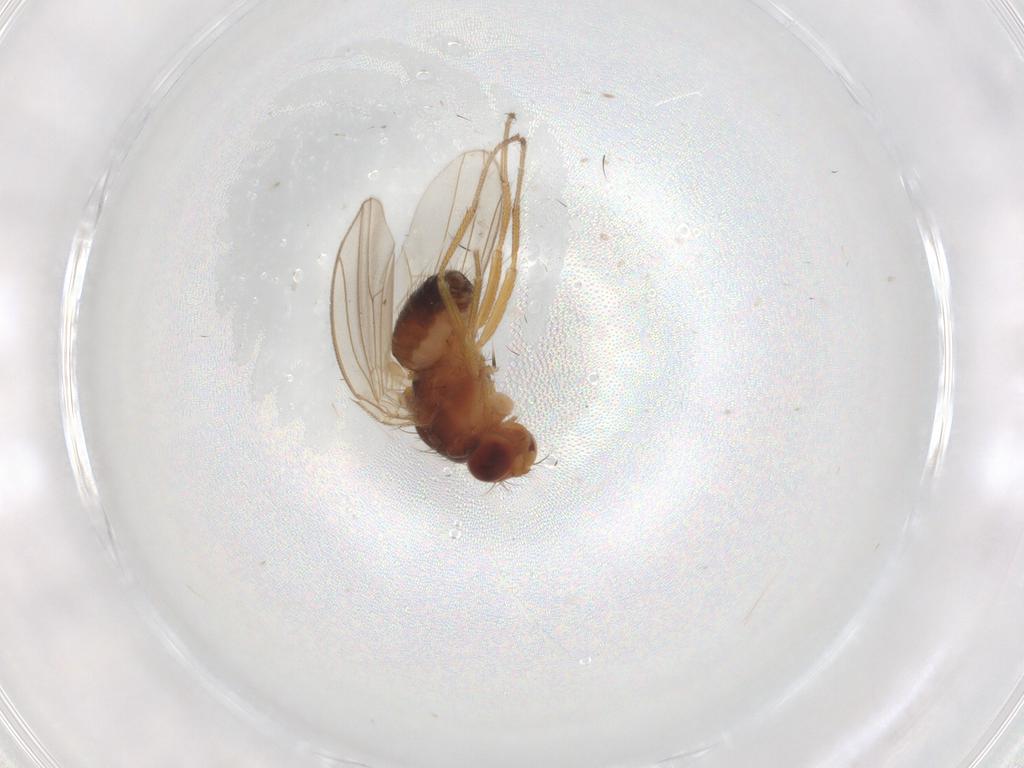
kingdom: Animalia
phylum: Arthropoda
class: Insecta
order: Diptera
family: Drosophilidae
